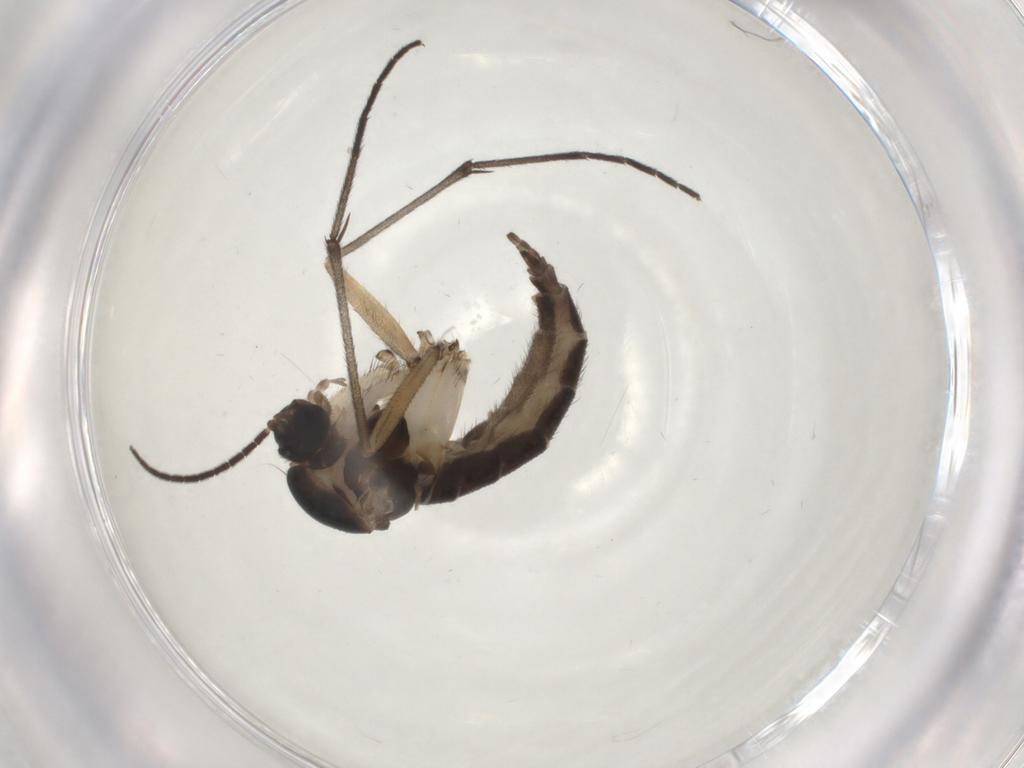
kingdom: Animalia
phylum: Arthropoda
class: Insecta
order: Diptera
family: Sciaridae
